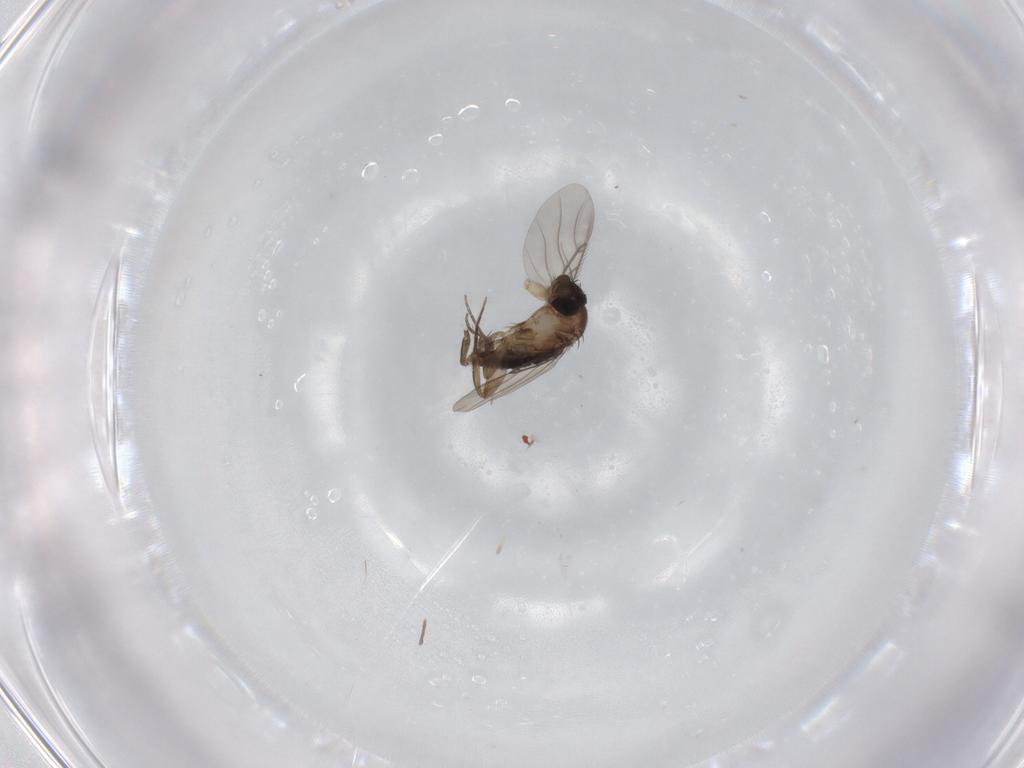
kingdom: Animalia
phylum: Arthropoda
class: Insecta
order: Diptera
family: Phoridae
